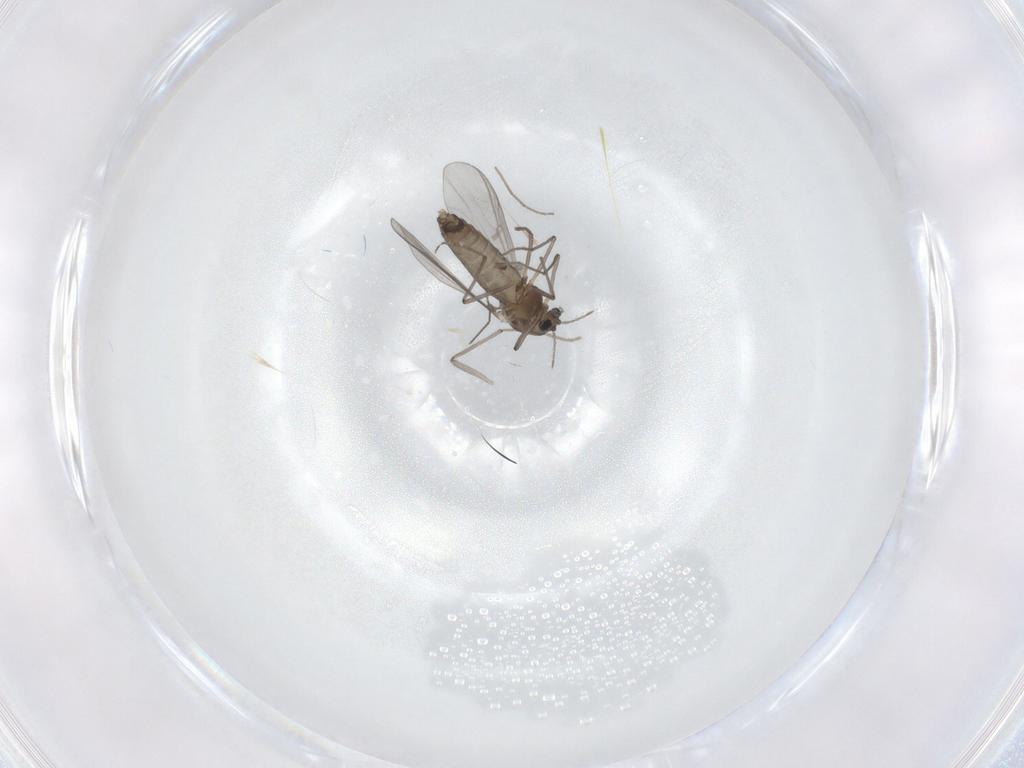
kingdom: Animalia
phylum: Arthropoda
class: Insecta
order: Diptera
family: Chironomidae
